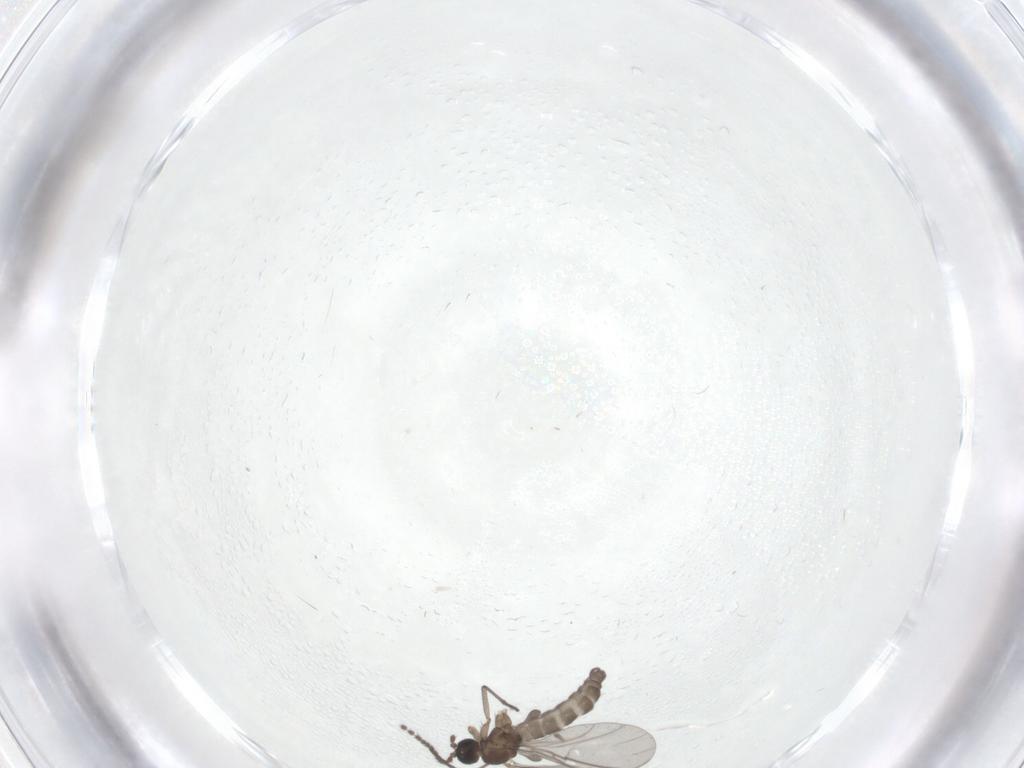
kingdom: Animalia
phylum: Arthropoda
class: Insecta
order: Diptera
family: Sciaridae
